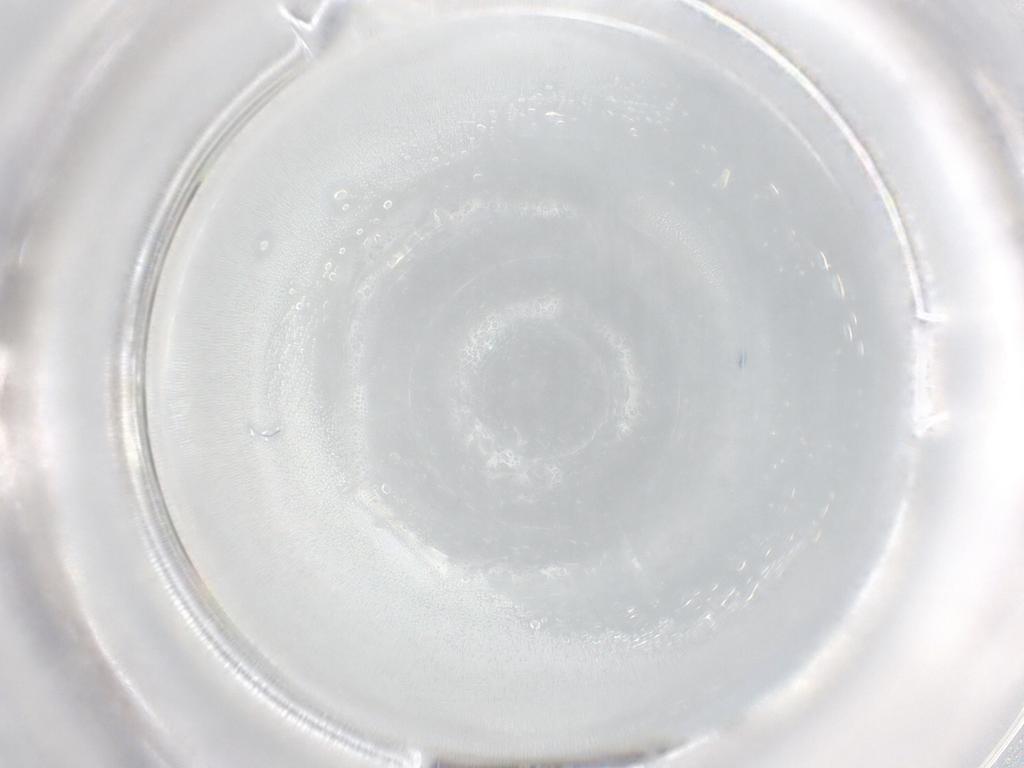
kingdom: Animalia
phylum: Arthropoda
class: Arachnida
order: Trombidiformes
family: Eupodidae
